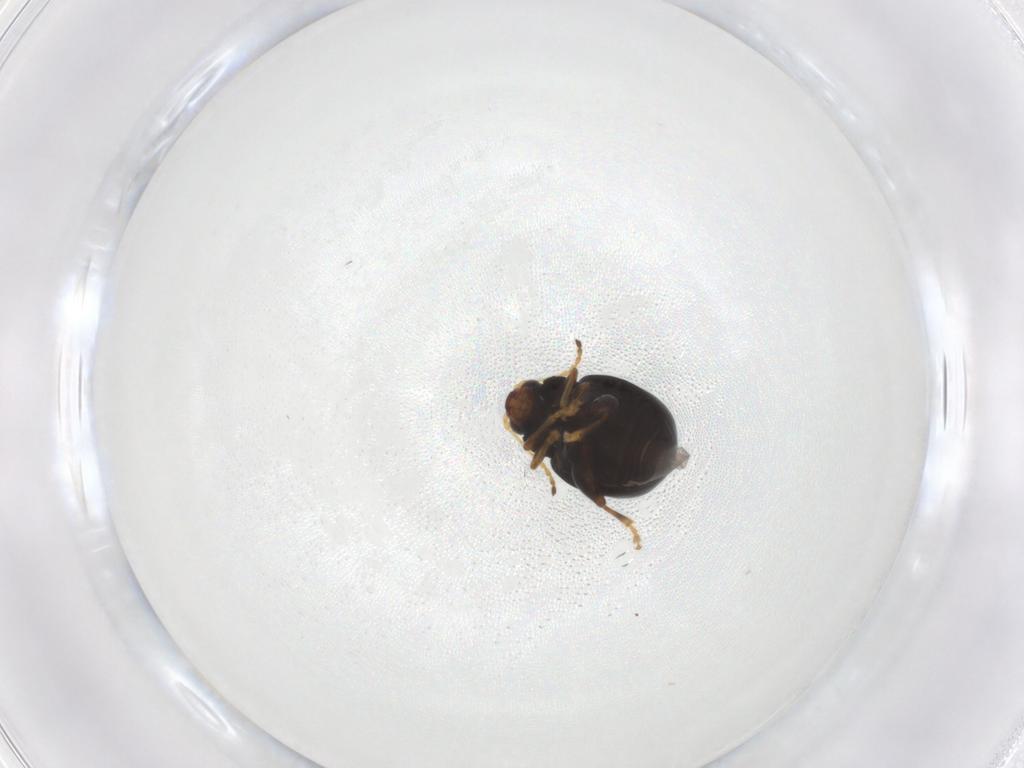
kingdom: Animalia
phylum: Arthropoda
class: Insecta
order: Coleoptera
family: Chrysomelidae
